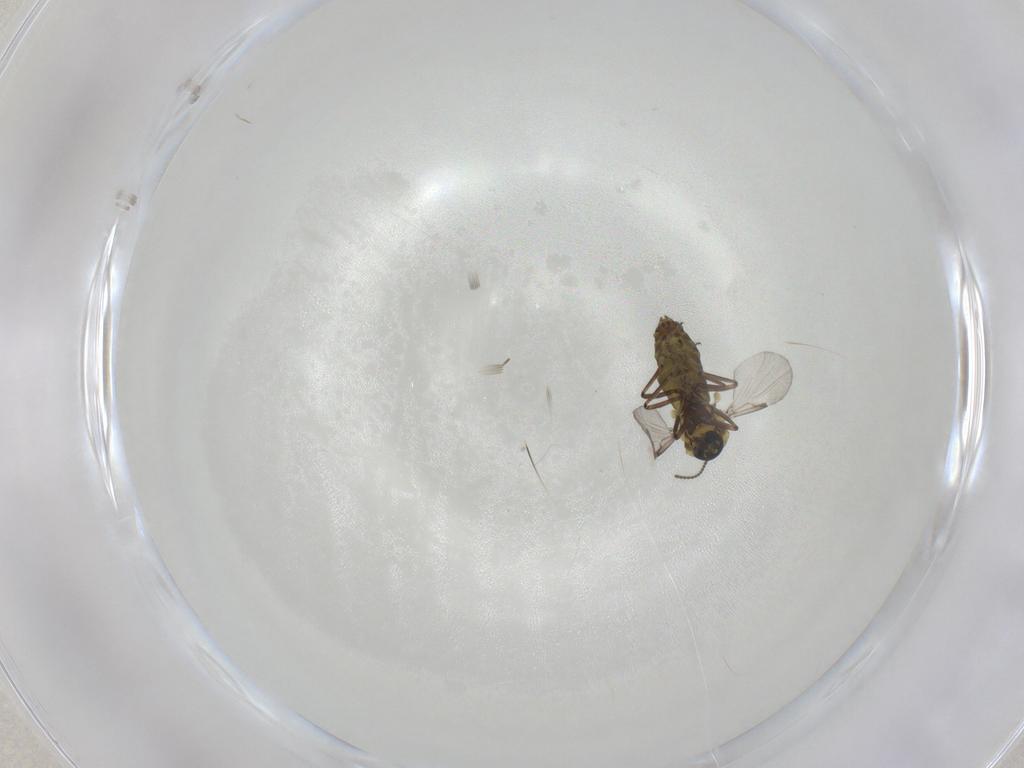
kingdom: Animalia
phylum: Arthropoda
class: Insecta
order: Diptera
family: Ceratopogonidae
